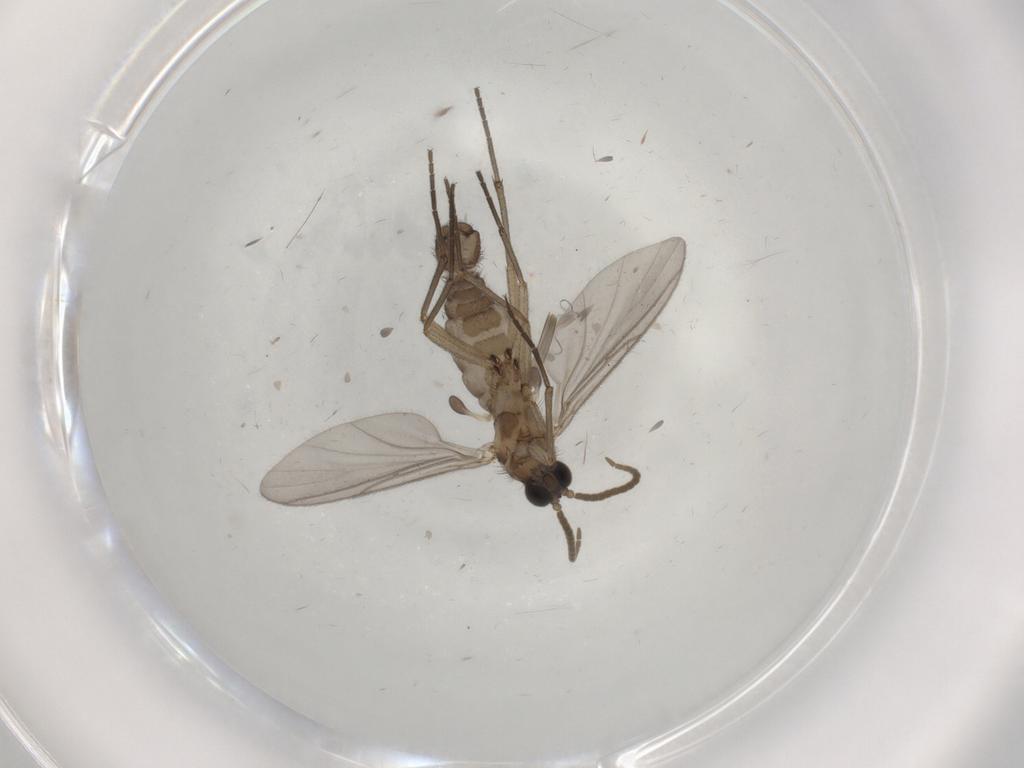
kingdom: Animalia
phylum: Arthropoda
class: Insecta
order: Diptera
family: Sciaridae
